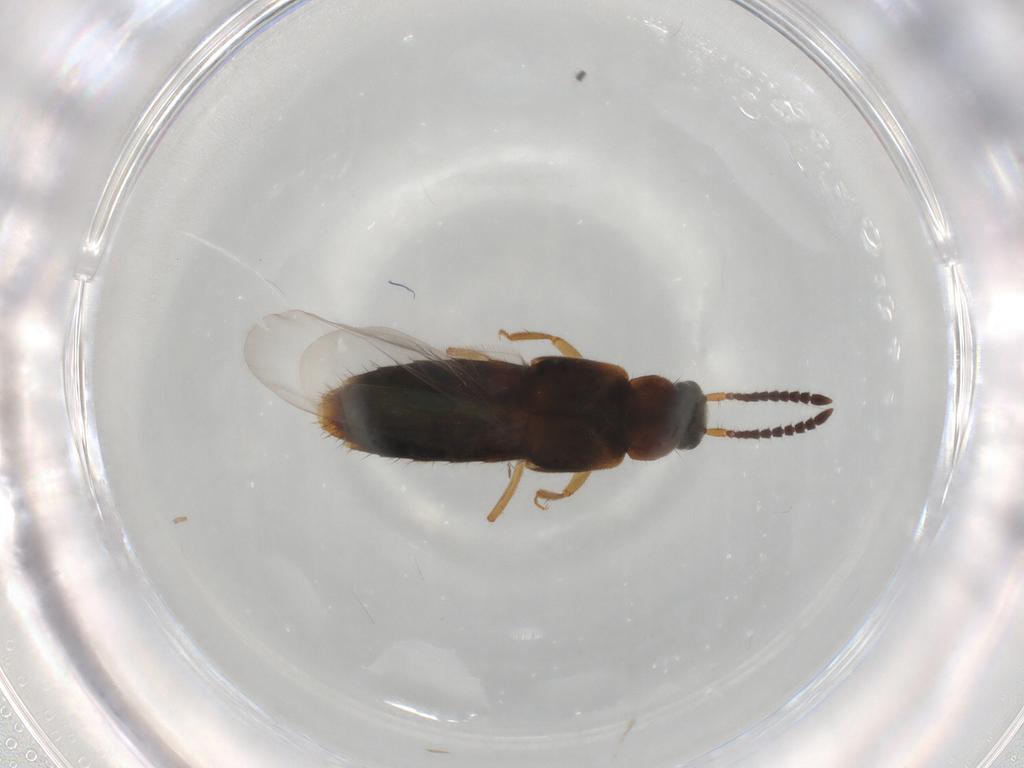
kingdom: Animalia
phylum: Arthropoda
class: Insecta
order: Coleoptera
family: Staphylinidae
